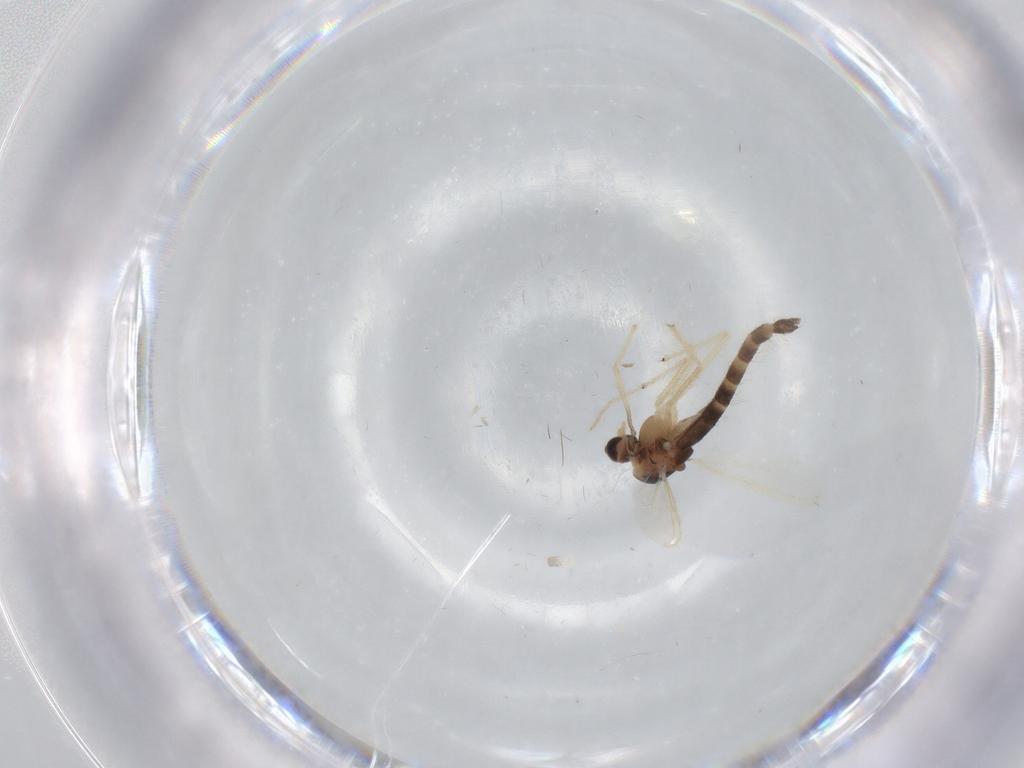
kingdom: Animalia
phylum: Arthropoda
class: Insecta
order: Diptera
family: Chironomidae
